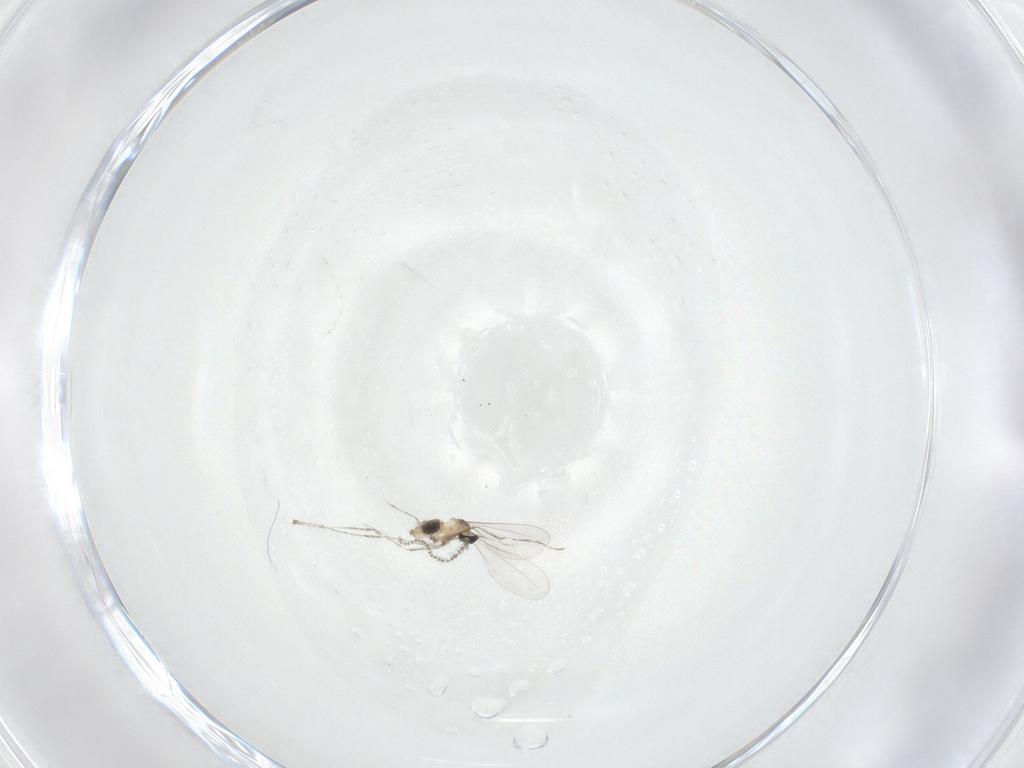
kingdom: Animalia
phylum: Arthropoda
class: Insecta
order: Diptera
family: Cecidomyiidae
